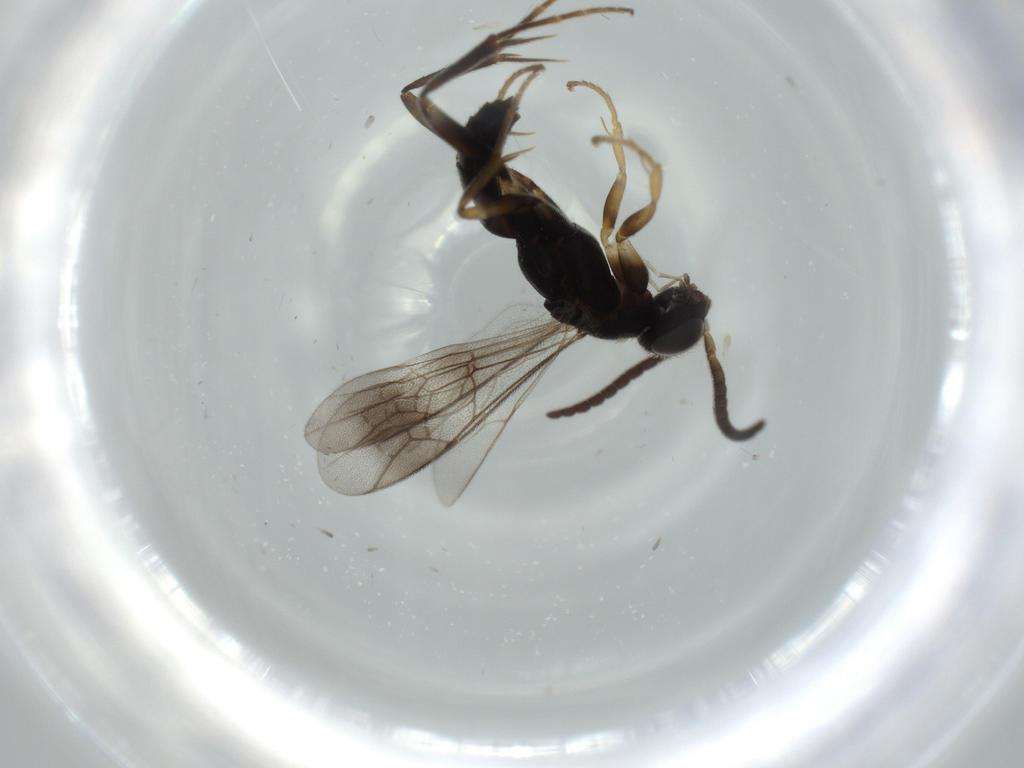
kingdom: Animalia
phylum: Arthropoda
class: Insecta
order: Hymenoptera
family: Pompilidae
